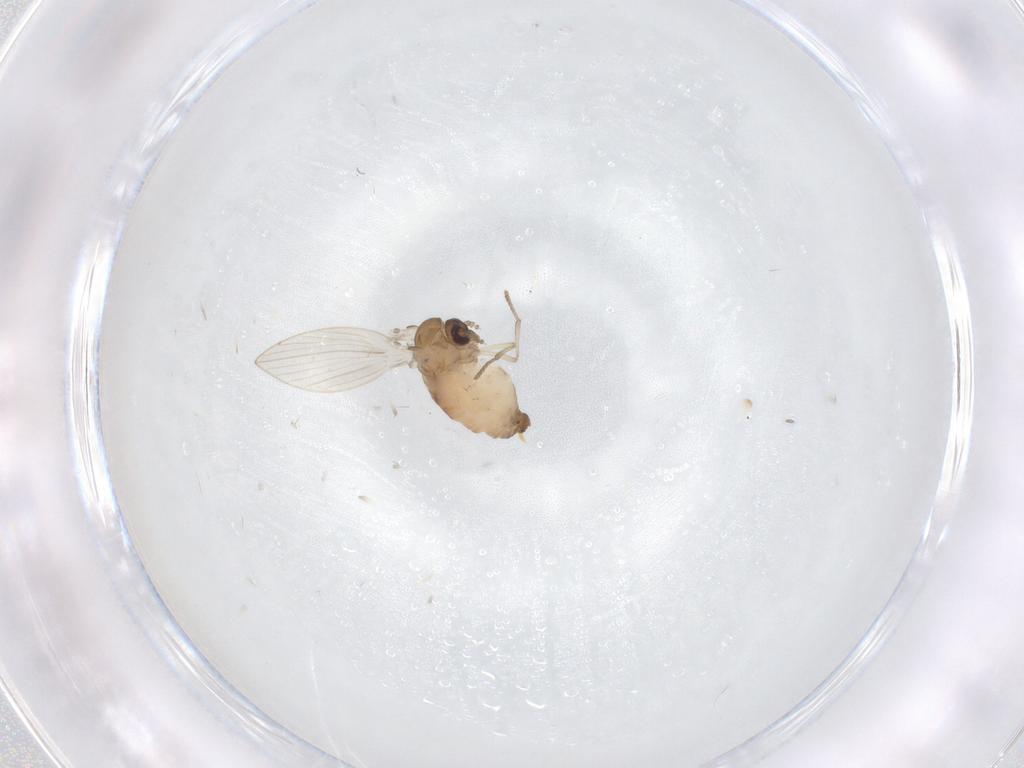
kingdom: Animalia
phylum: Arthropoda
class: Insecta
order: Diptera
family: Psychodidae
